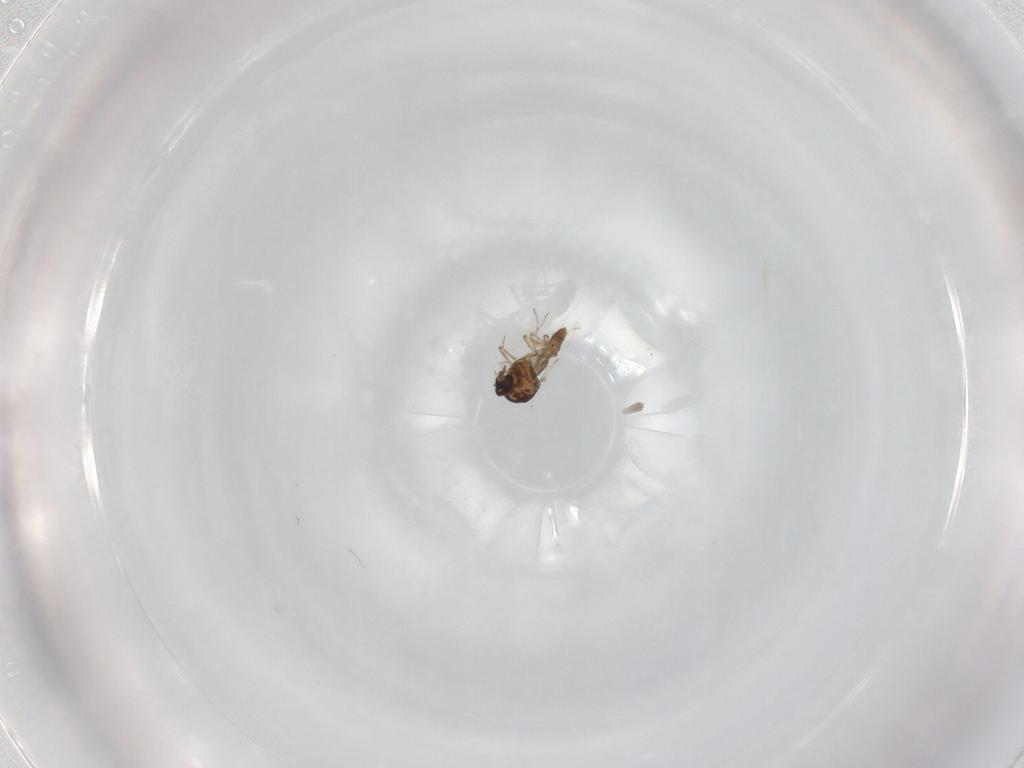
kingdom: Animalia
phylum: Arthropoda
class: Insecta
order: Diptera
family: Ceratopogonidae
